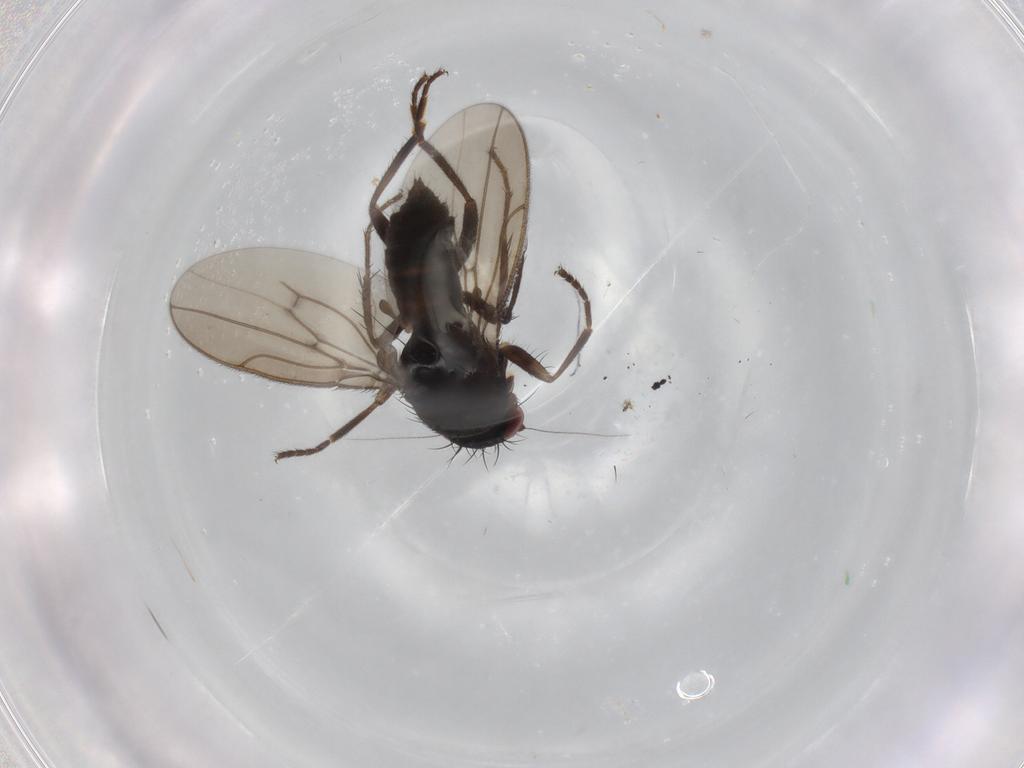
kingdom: Animalia
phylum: Arthropoda
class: Insecta
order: Diptera
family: Sphaeroceridae
